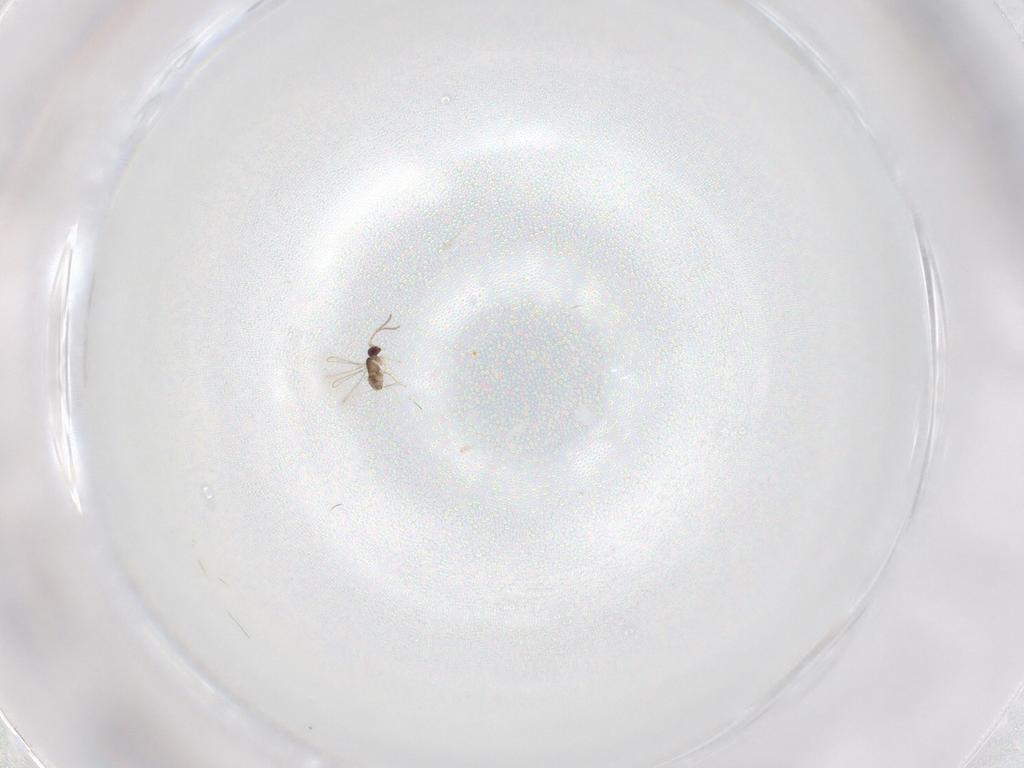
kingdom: Animalia
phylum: Arthropoda
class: Insecta
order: Hymenoptera
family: Mymaridae
